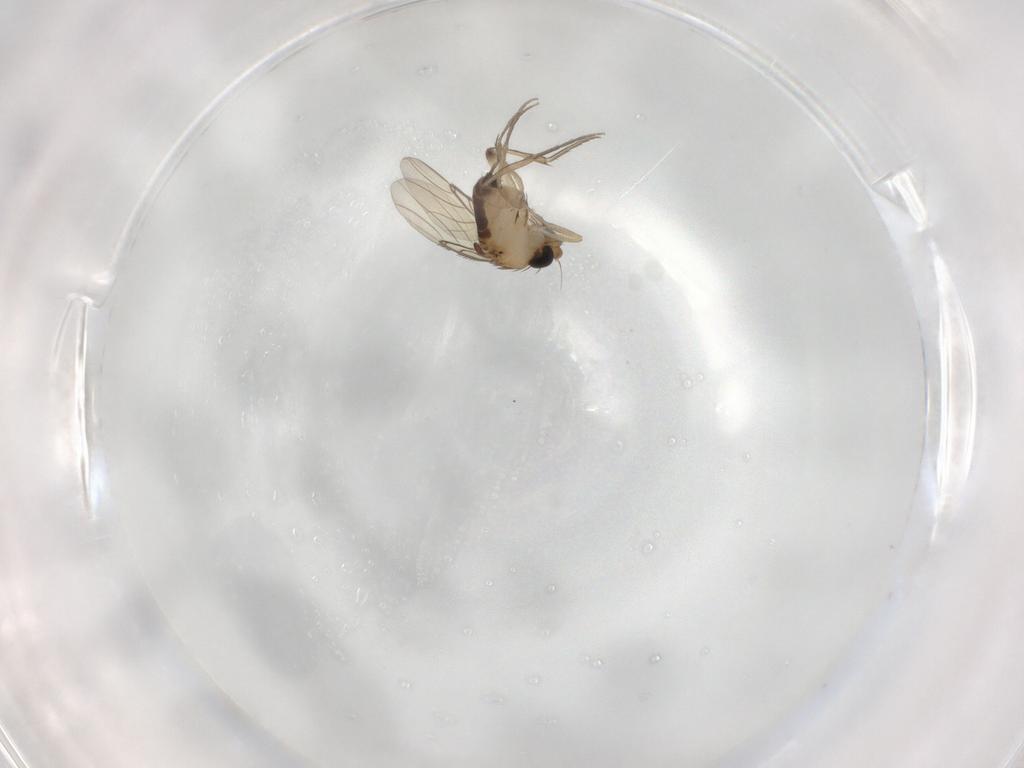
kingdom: Animalia
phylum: Arthropoda
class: Insecta
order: Diptera
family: Phoridae
